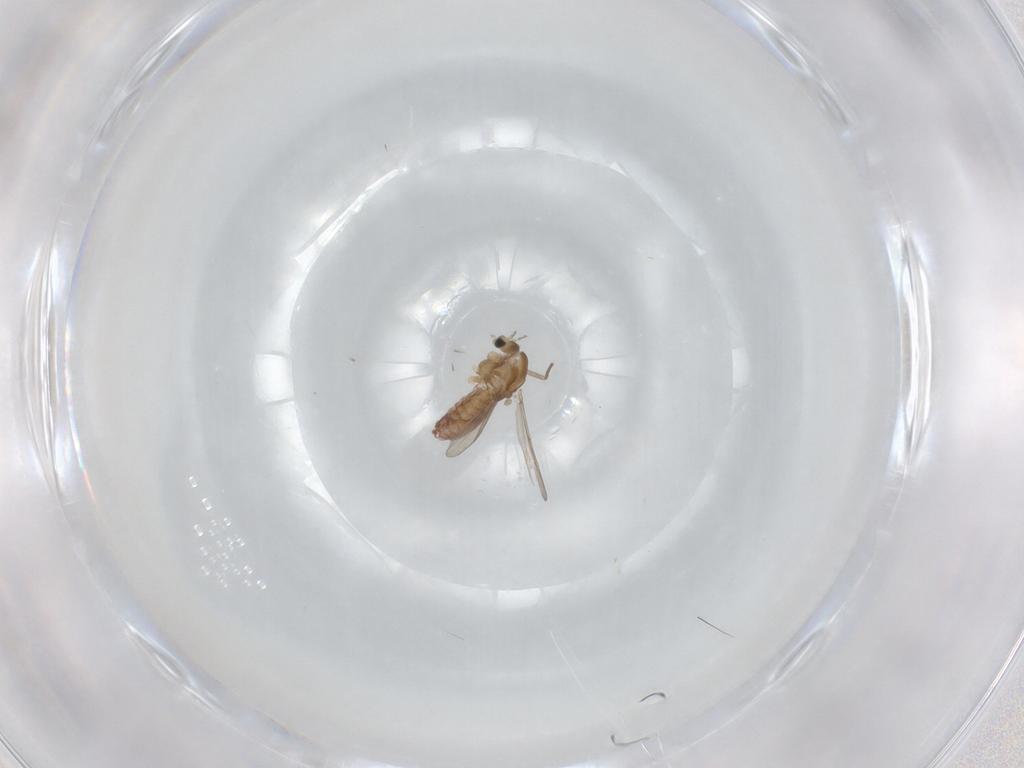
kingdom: Animalia
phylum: Arthropoda
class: Insecta
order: Diptera
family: Chironomidae
